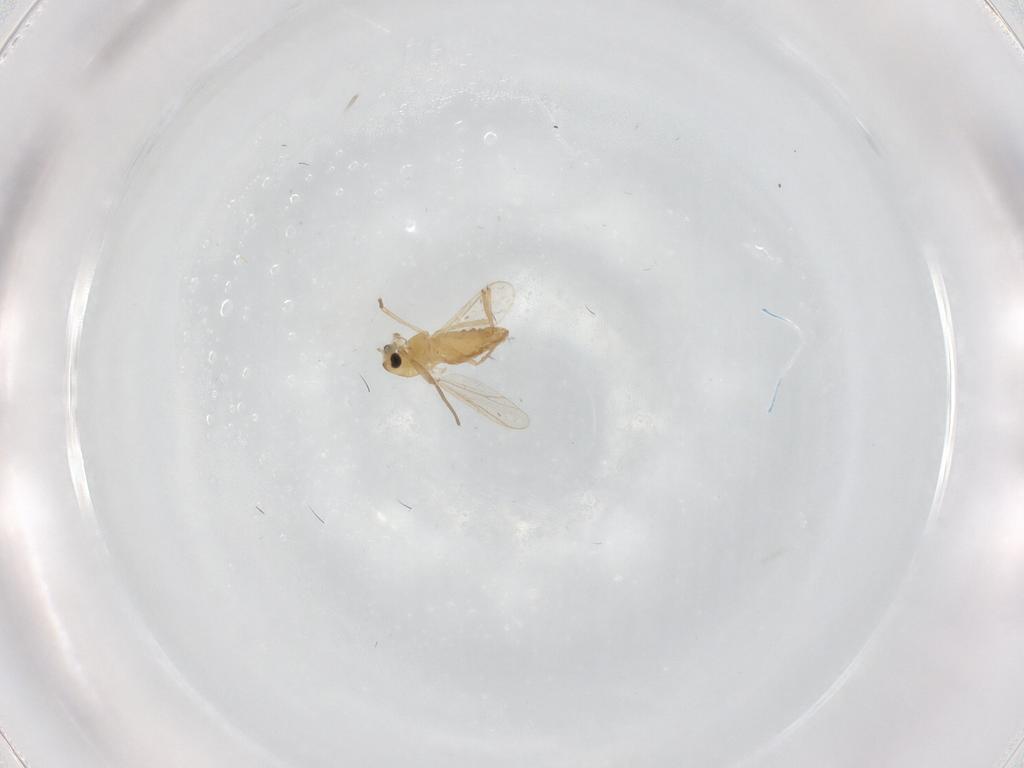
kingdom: Animalia
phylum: Arthropoda
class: Insecta
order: Diptera
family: Chironomidae
